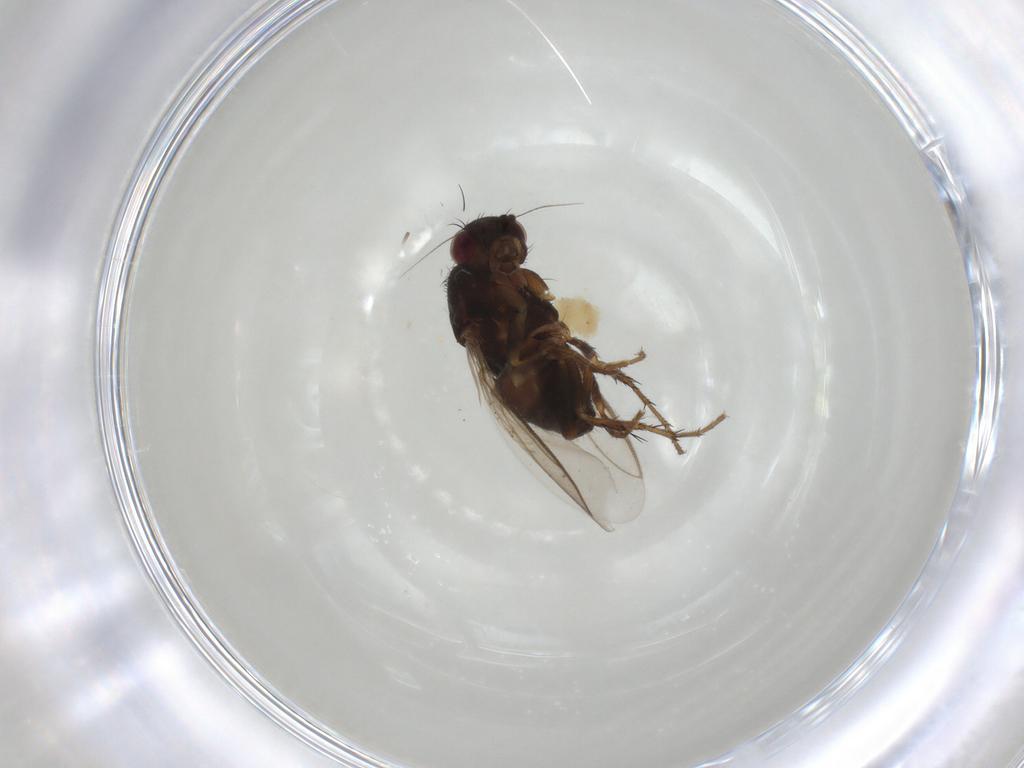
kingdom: Animalia
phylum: Arthropoda
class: Insecta
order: Diptera
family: Sphaeroceridae
